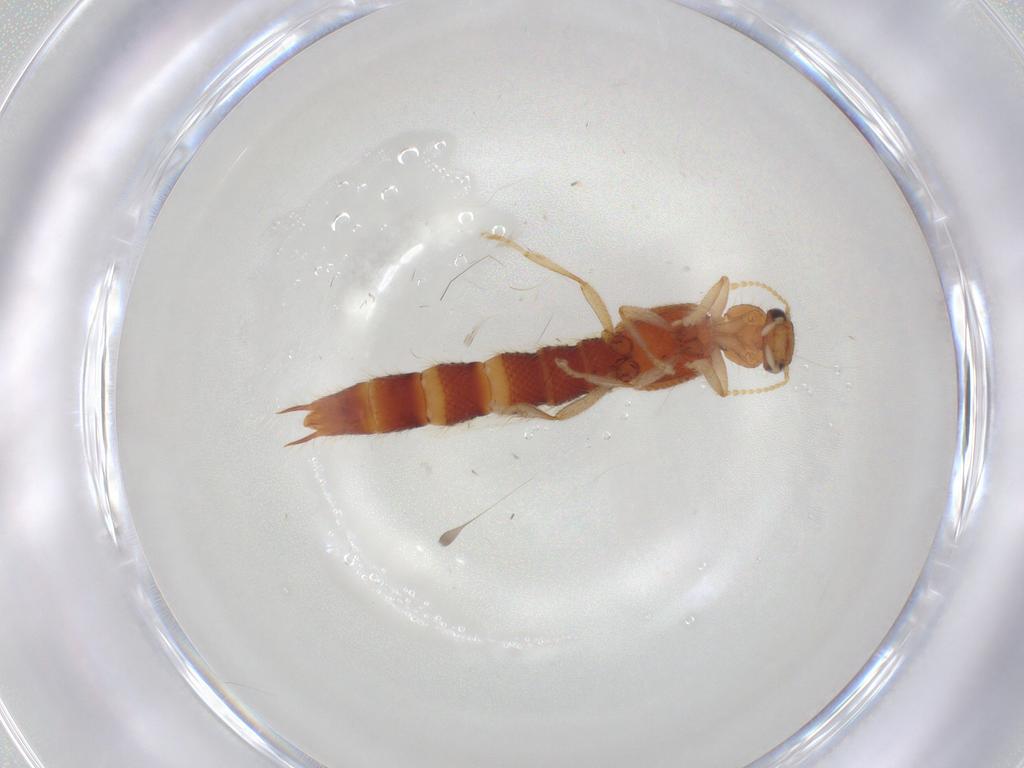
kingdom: Animalia
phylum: Arthropoda
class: Insecta
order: Coleoptera
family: Staphylinidae
